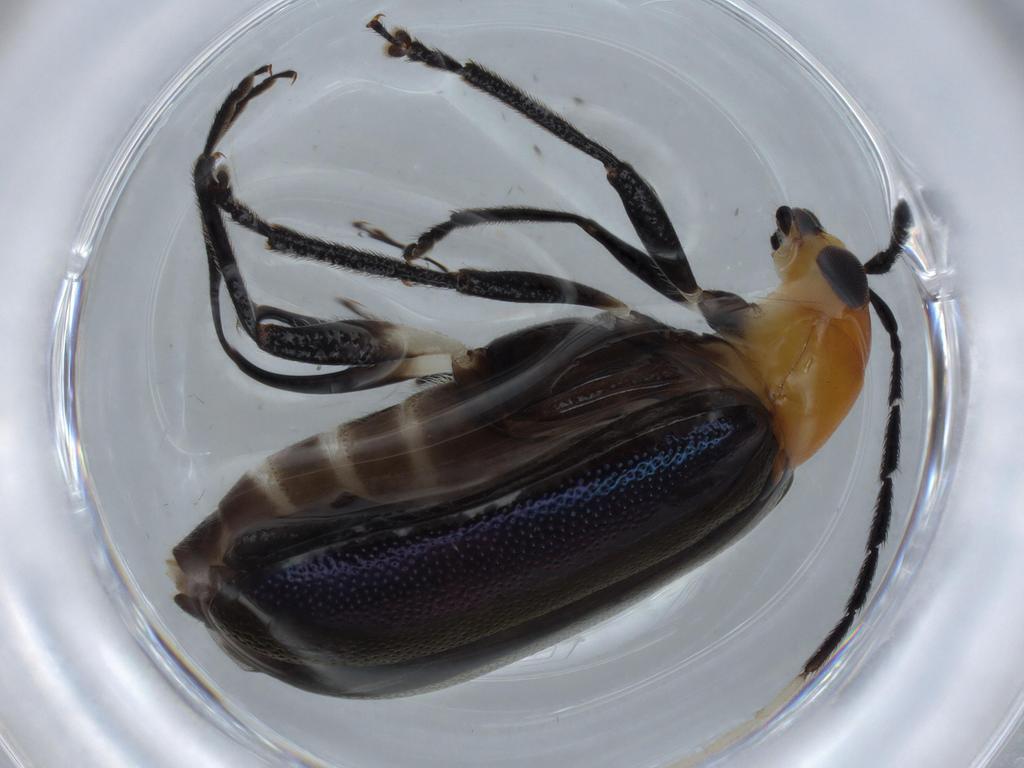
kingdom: Animalia
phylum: Arthropoda
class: Insecta
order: Coleoptera
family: Chrysomelidae
